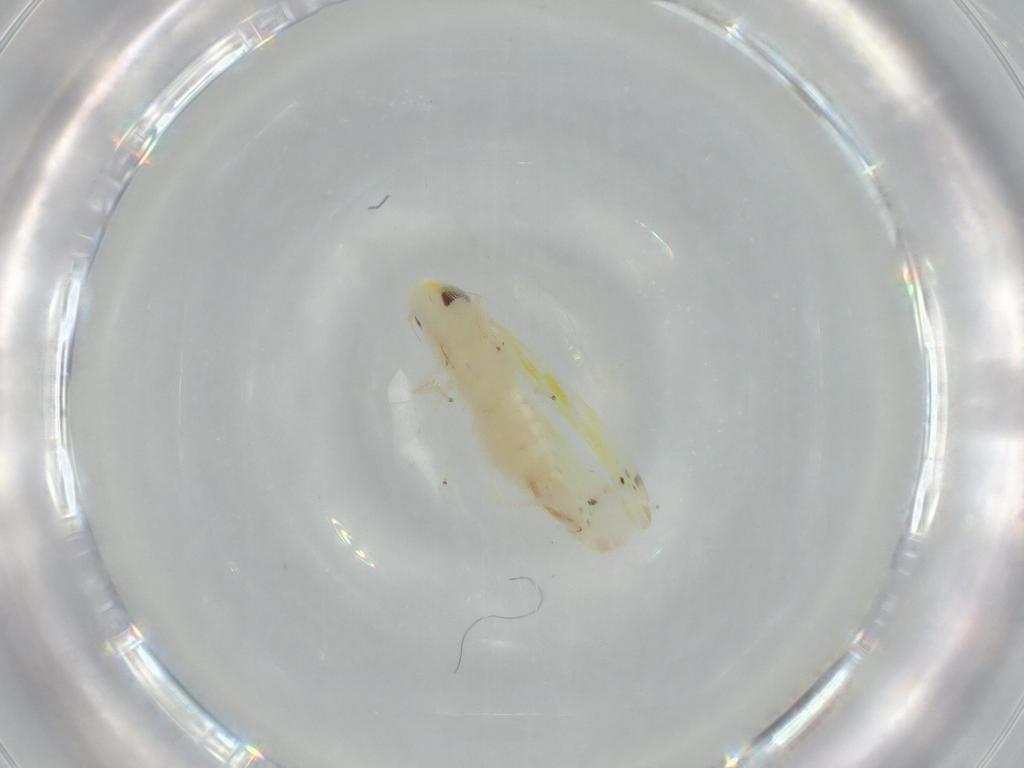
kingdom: Animalia
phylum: Arthropoda
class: Insecta
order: Hemiptera
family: Cicadellidae
